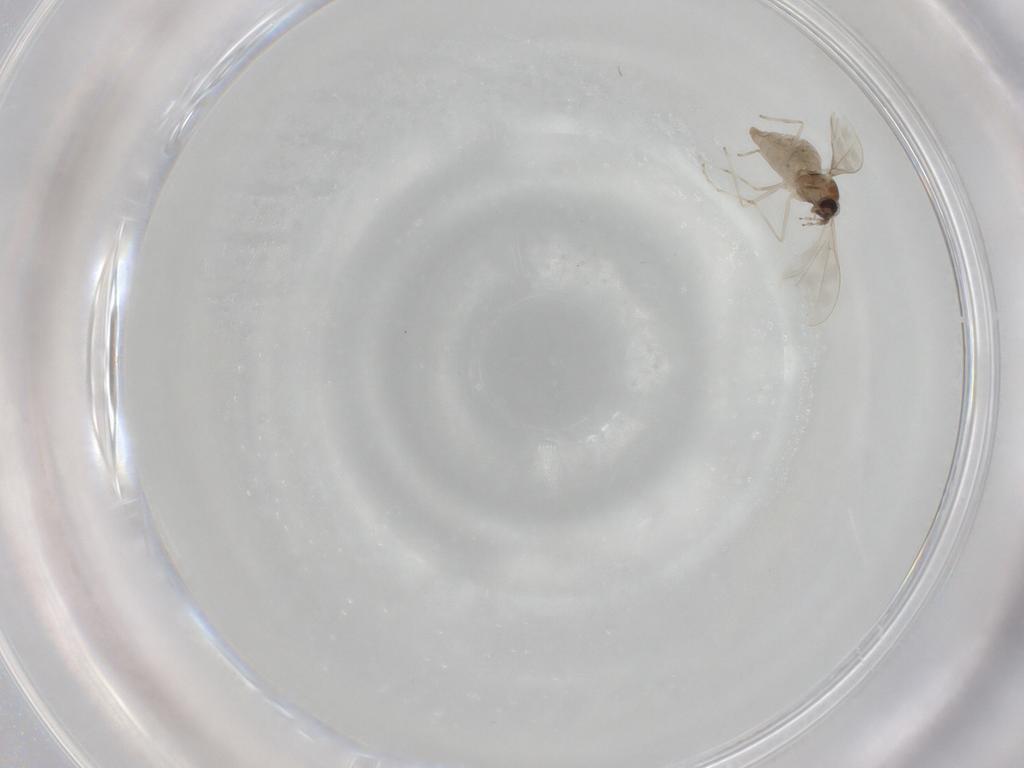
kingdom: Animalia
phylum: Arthropoda
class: Insecta
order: Diptera
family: Cecidomyiidae
